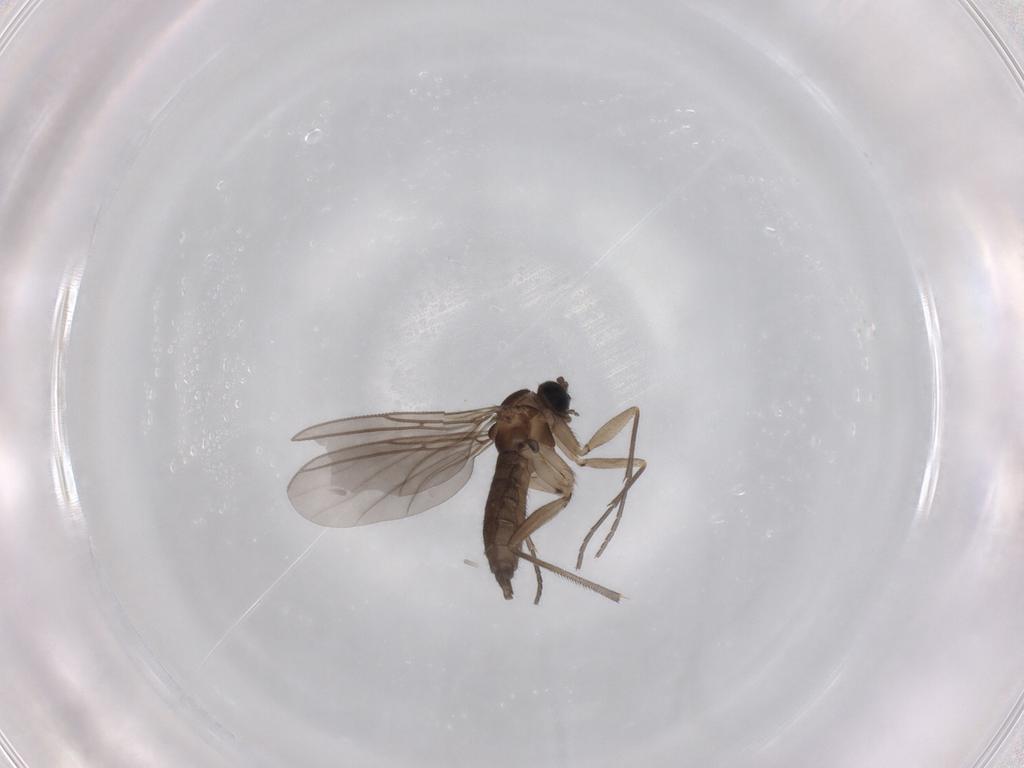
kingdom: Animalia
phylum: Arthropoda
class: Insecta
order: Diptera
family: Sciaridae
